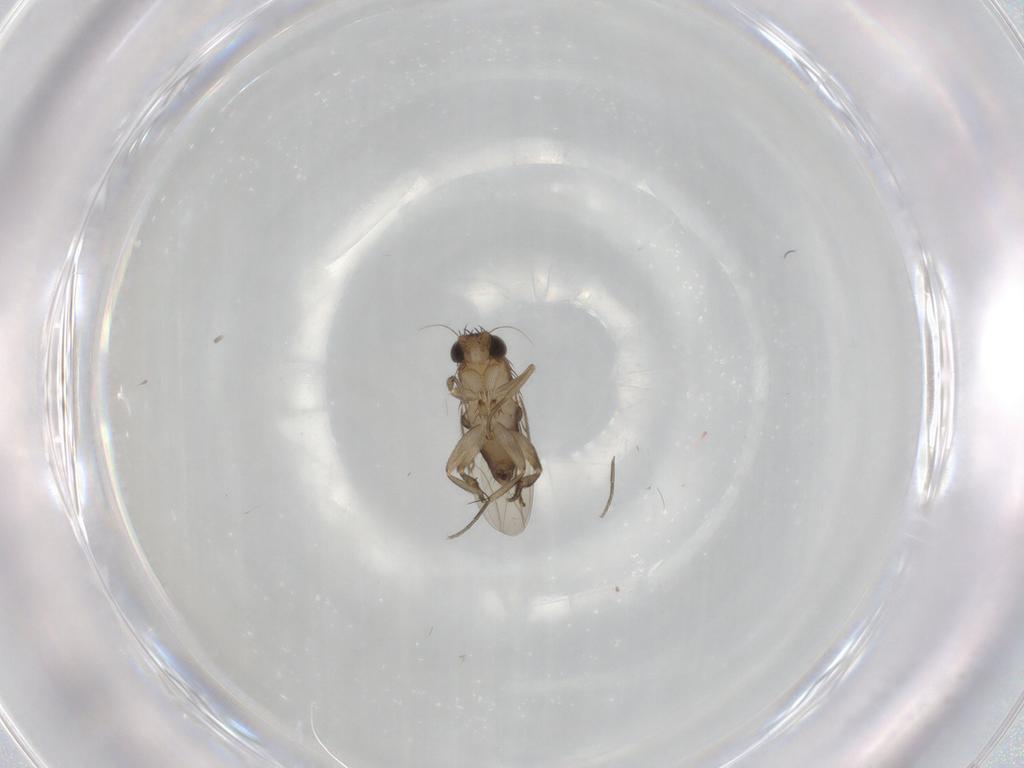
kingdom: Animalia
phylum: Arthropoda
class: Insecta
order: Diptera
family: Phoridae
